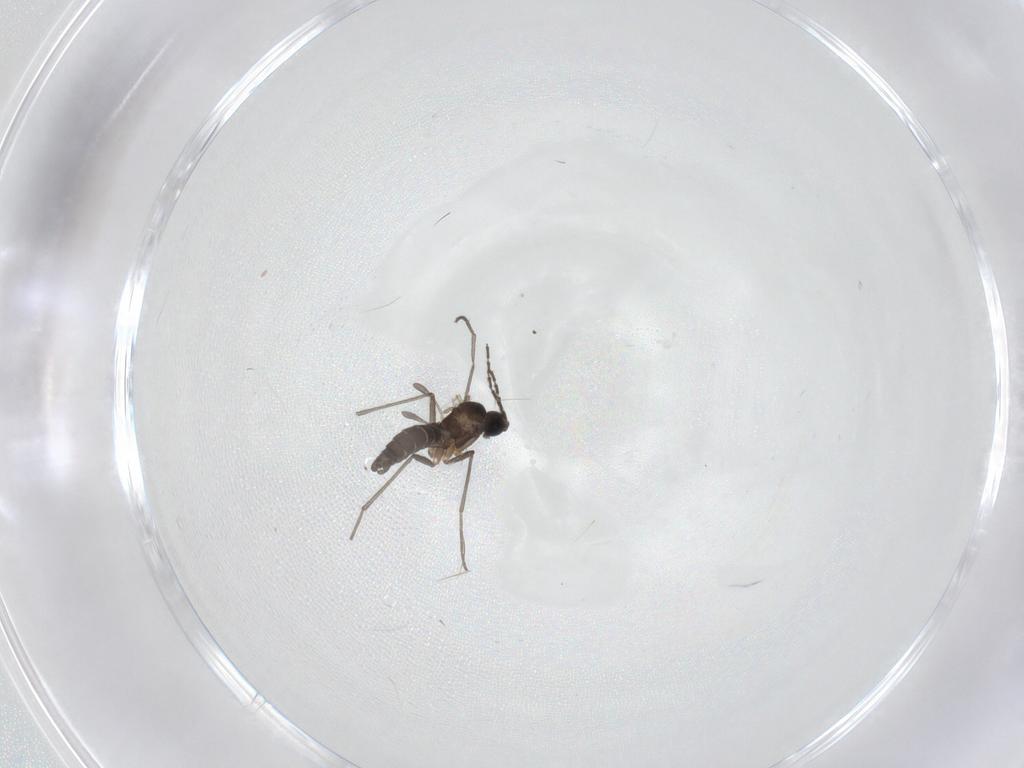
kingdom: Animalia
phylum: Arthropoda
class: Insecta
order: Diptera
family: Sciaridae
